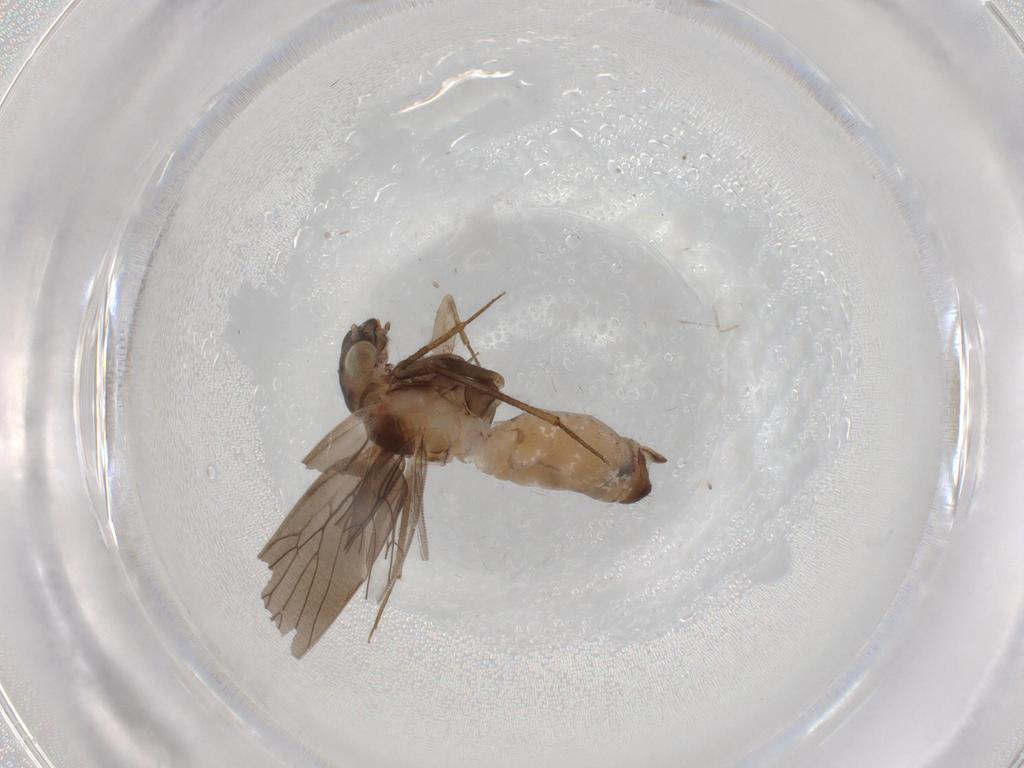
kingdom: Animalia
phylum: Arthropoda
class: Insecta
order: Psocodea
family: Lepidopsocidae
